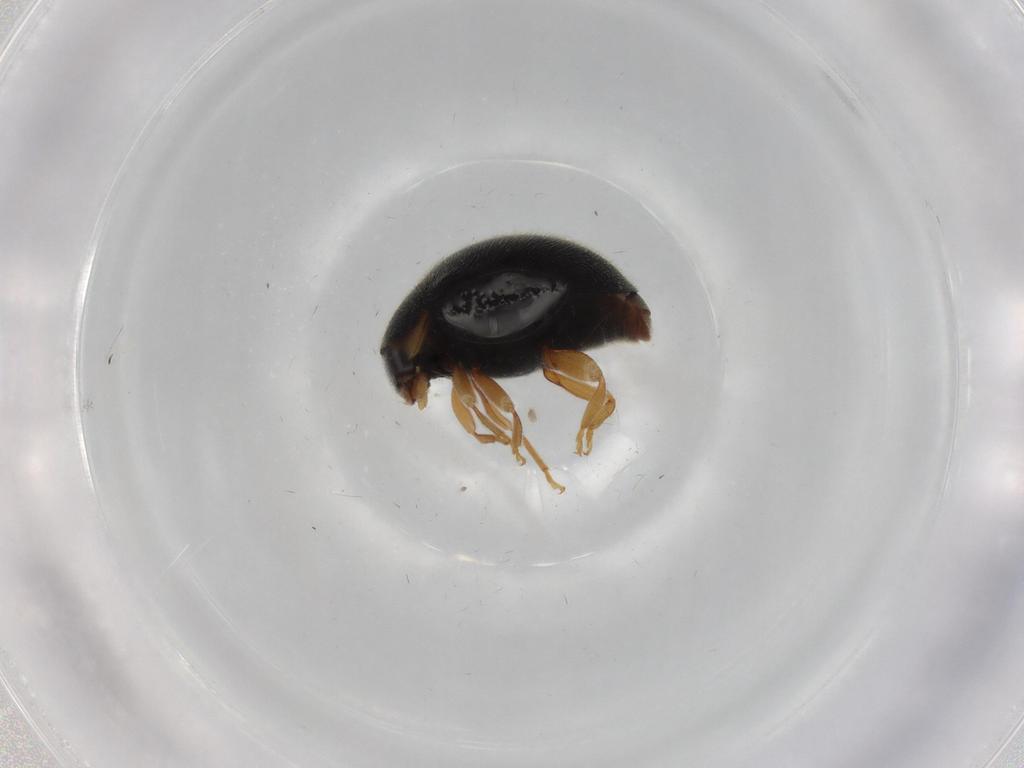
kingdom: Animalia
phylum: Arthropoda
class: Insecta
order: Coleoptera
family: Coccinellidae
